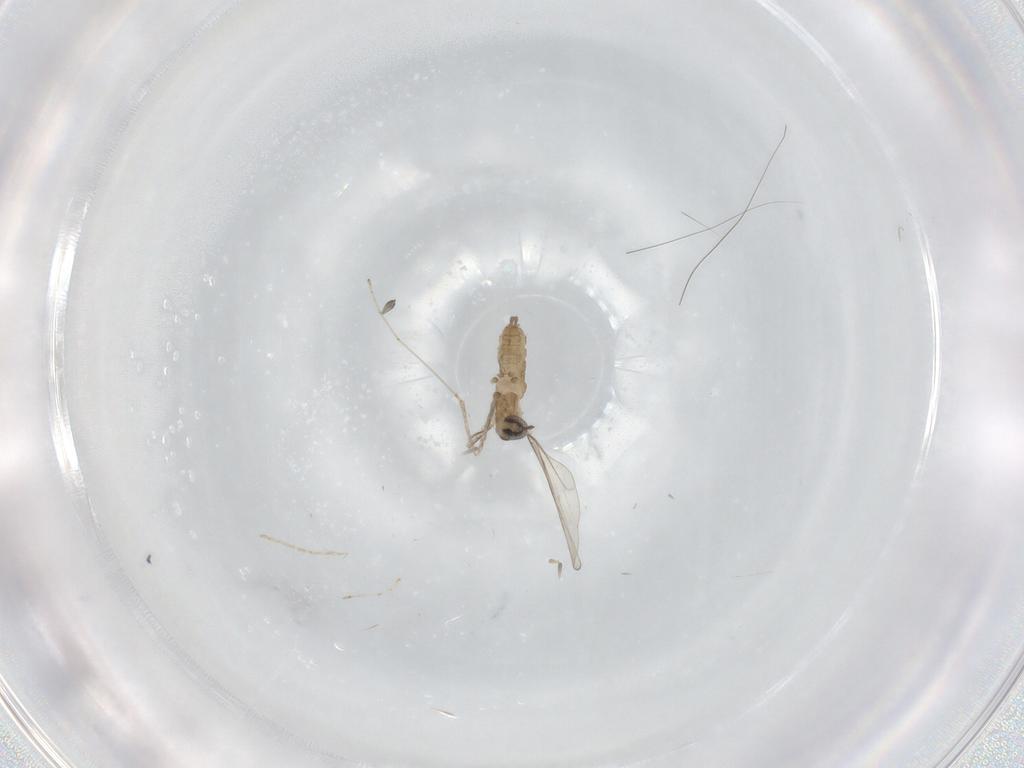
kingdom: Animalia
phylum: Arthropoda
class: Insecta
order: Diptera
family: Cecidomyiidae
